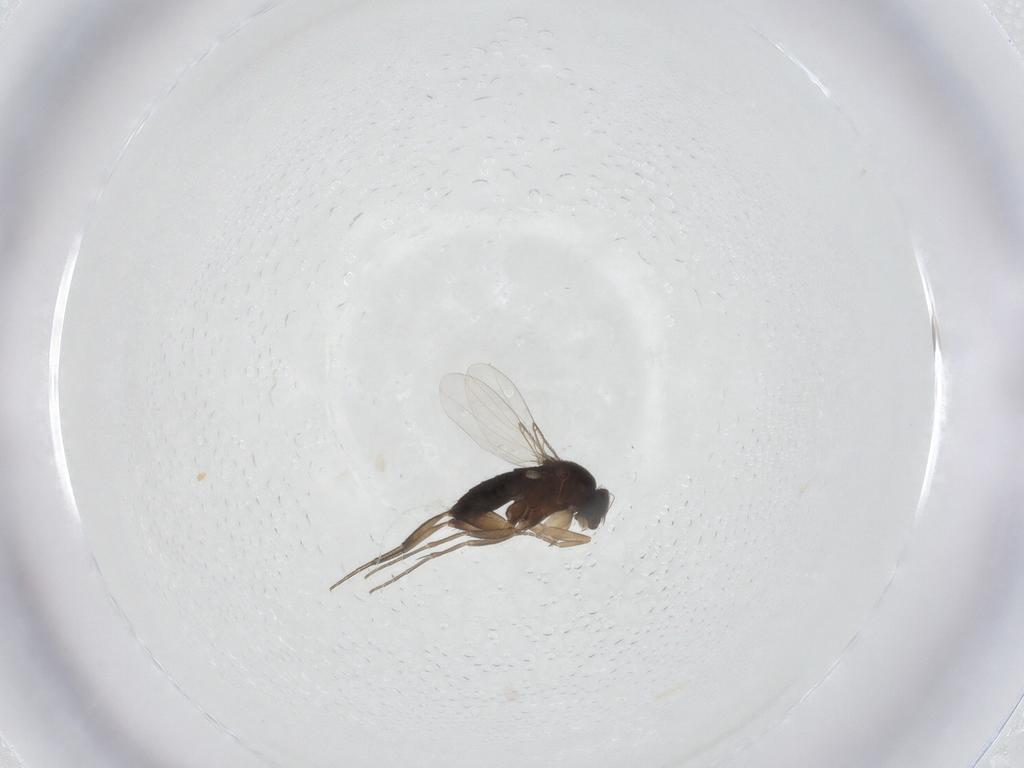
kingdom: Animalia
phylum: Arthropoda
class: Insecta
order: Diptera
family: Phoridae
